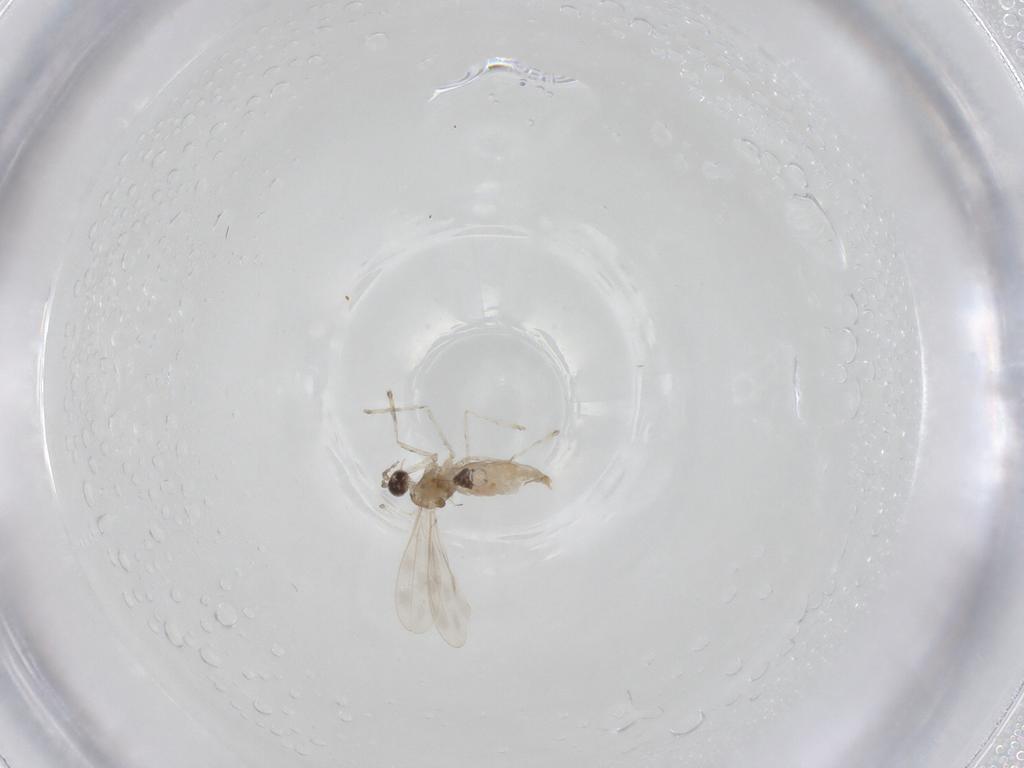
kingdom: Animalia
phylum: Arthropoda
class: Insecta
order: Diptera
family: Cecidomyiidae
